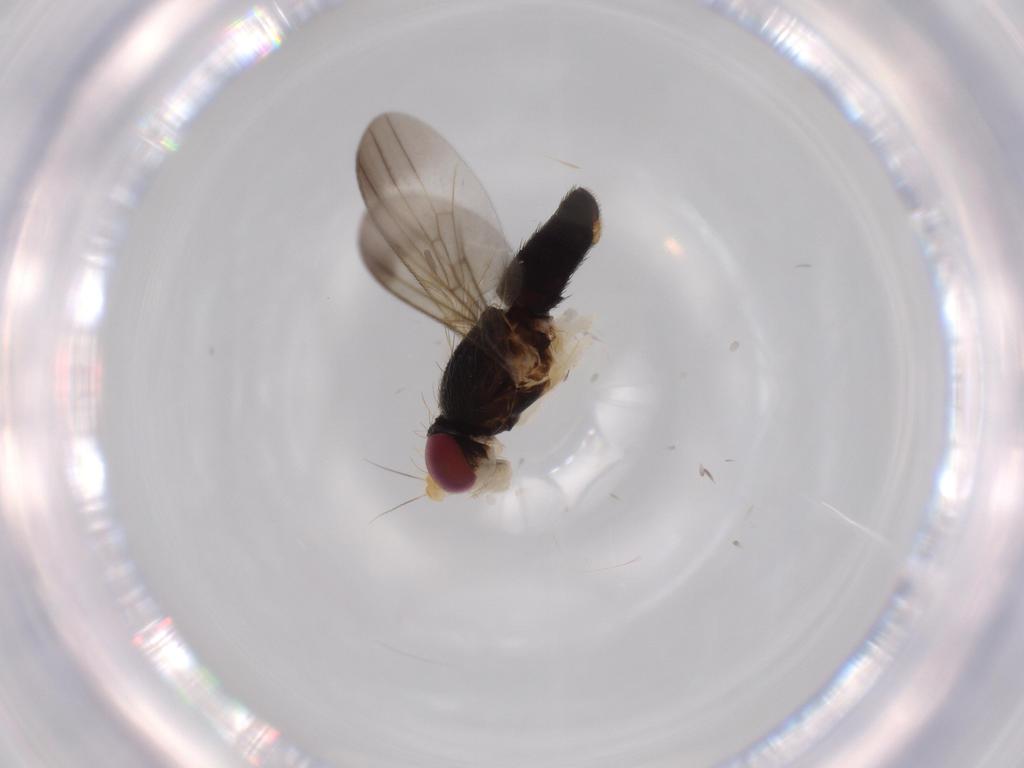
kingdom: Animalia
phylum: Arthropoda
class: Insecta
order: Diptera
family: Clusiidae
